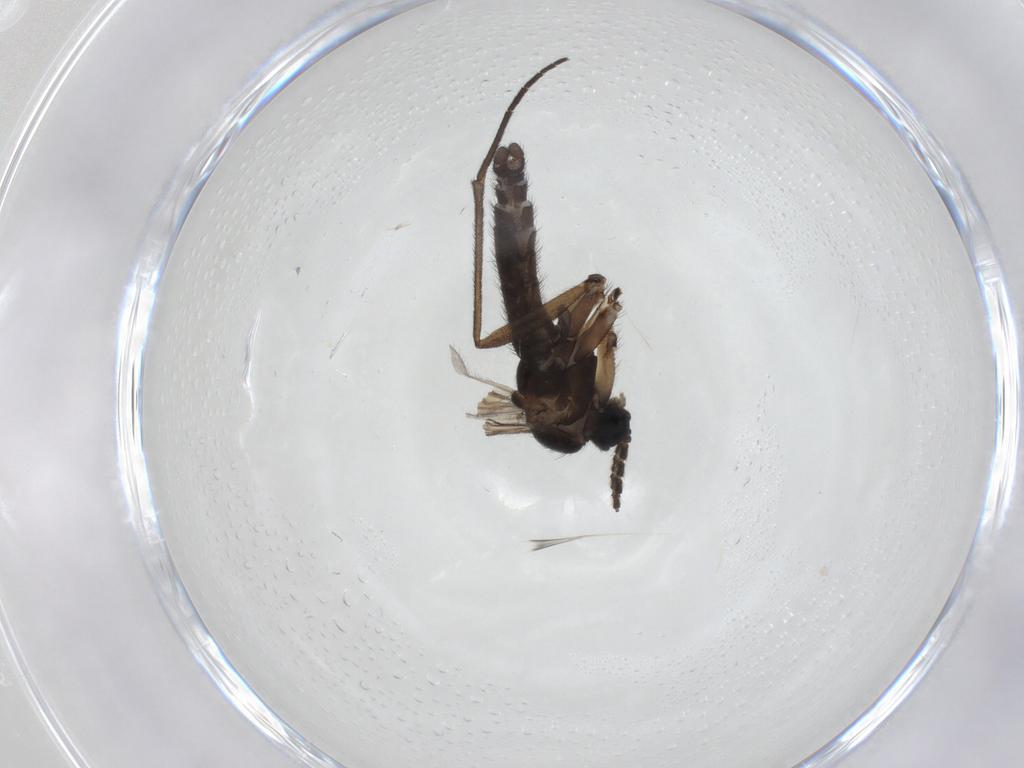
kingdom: Animalia
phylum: Arthropoda
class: Insecta
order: Diptera
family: Sciaridae
